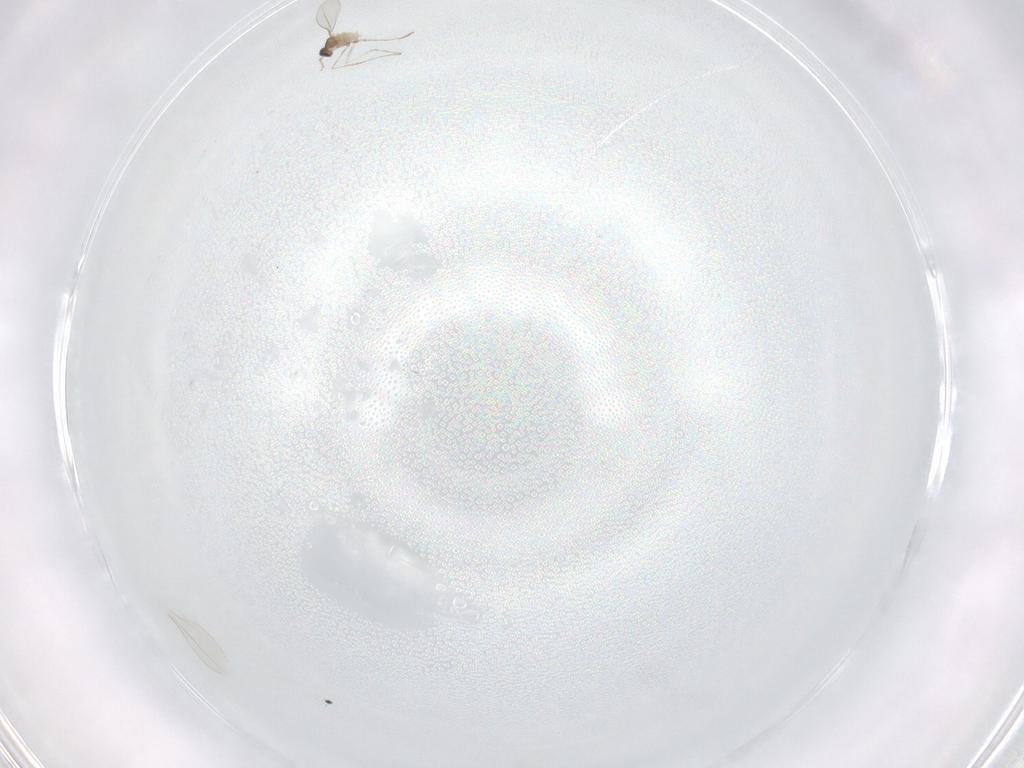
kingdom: Animalia
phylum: Arthropoda
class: Insecta
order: Diptera
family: Cecidomyiidae
